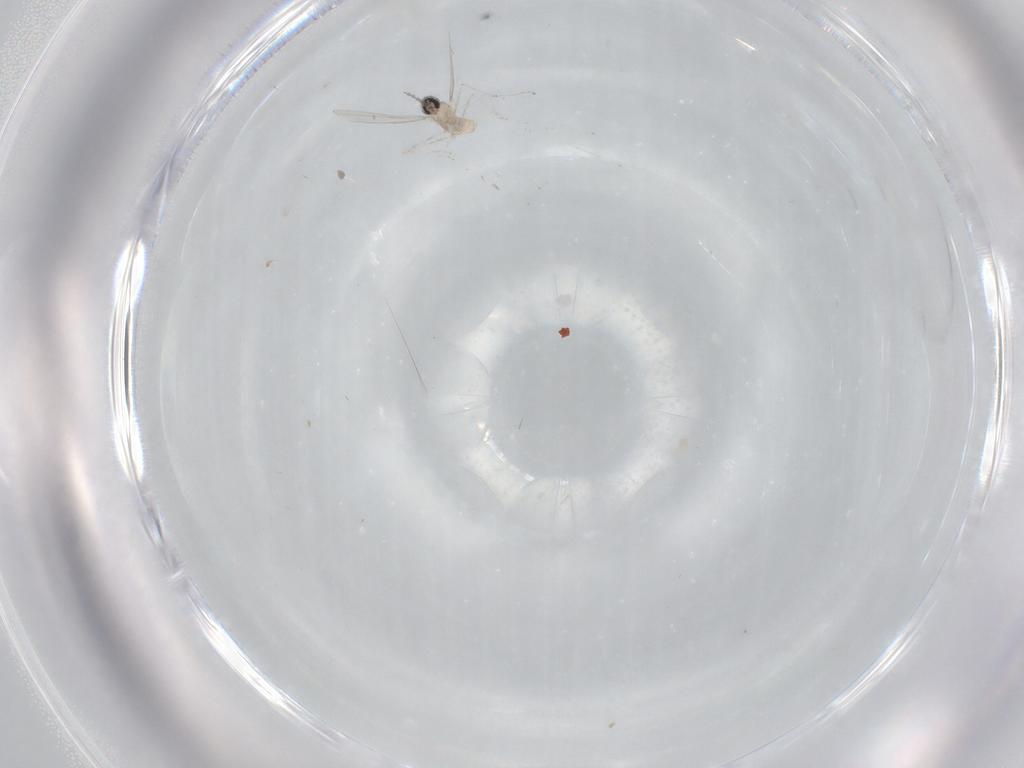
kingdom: Animalia
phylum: Arthropoda
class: Insecta
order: Diptera
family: Cecidomyiidae
